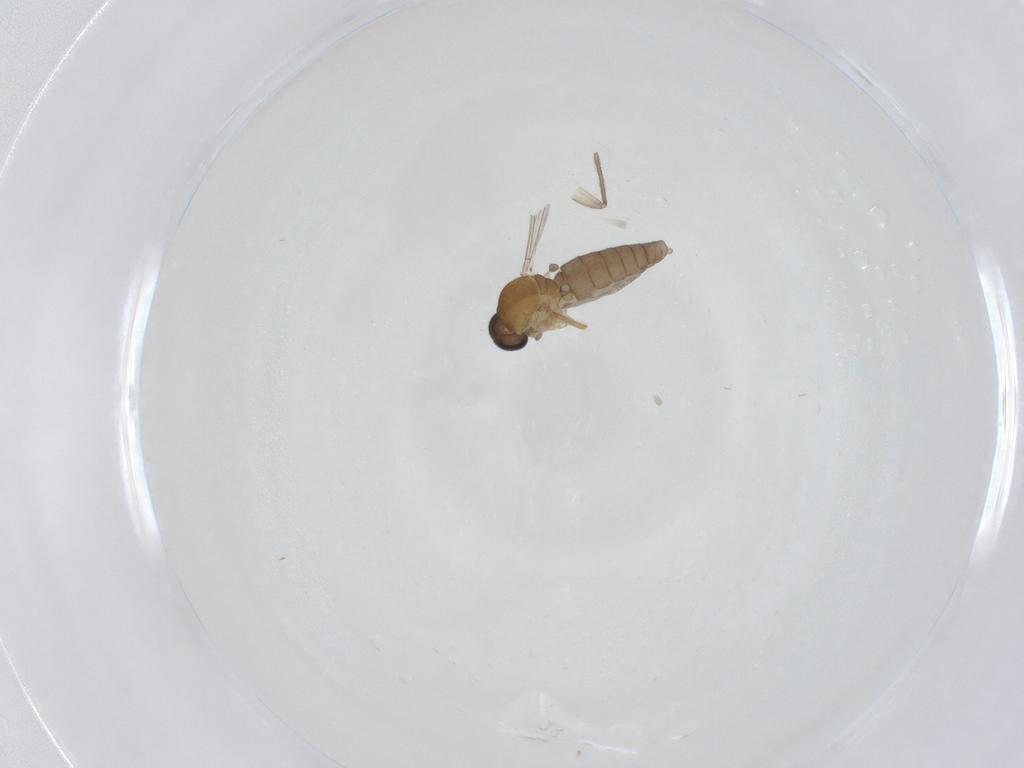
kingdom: Animalia
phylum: Arthropoda
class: Insecta
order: Diptera
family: Ceratopogonidae
